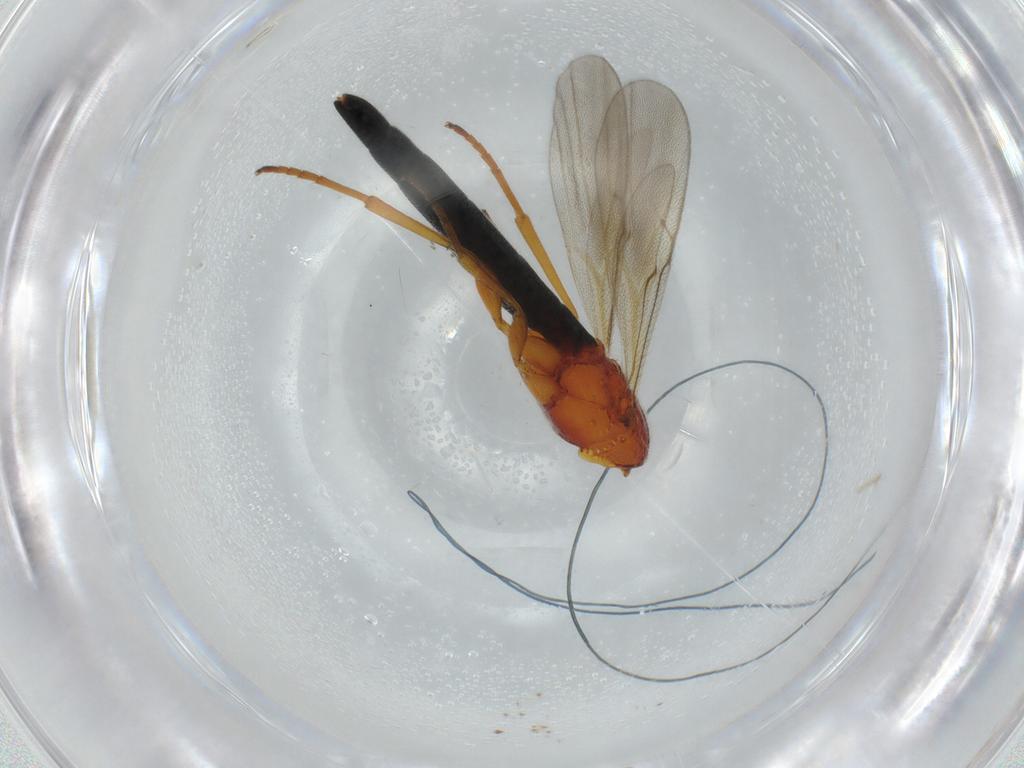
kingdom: Animalia
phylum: Arthropoda
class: Insecta
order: Hymenoptera
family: Scelionidae
